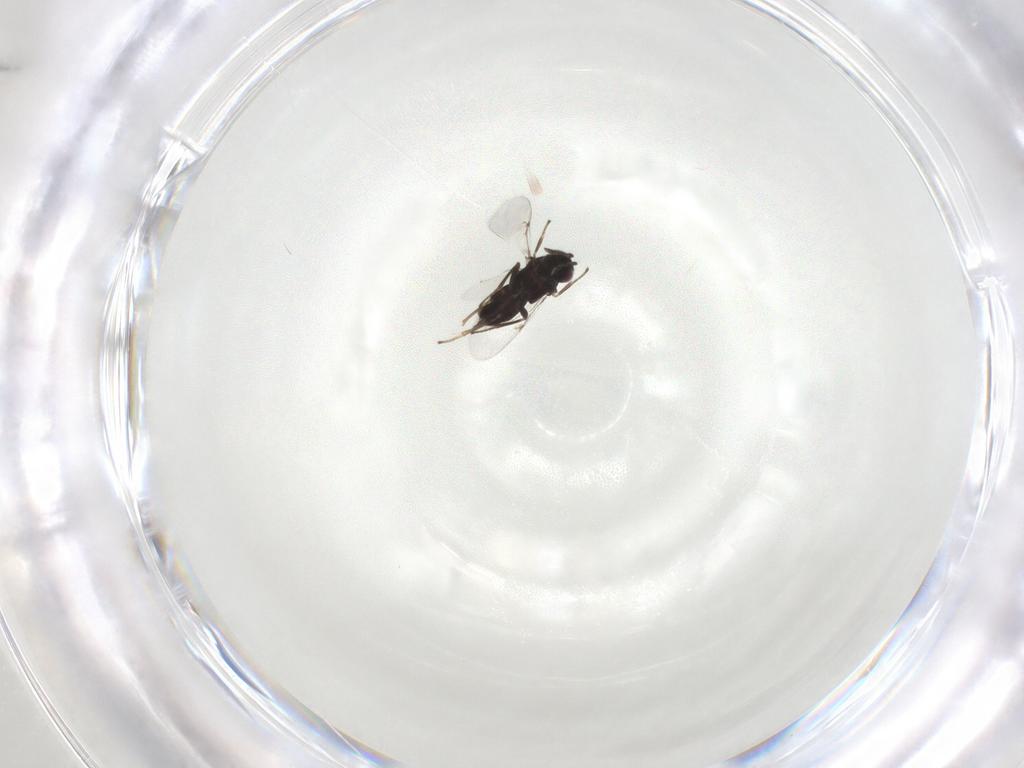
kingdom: Animalia
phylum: Arthropoda
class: Insecta
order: Hymenoptera
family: Encyrtidae
